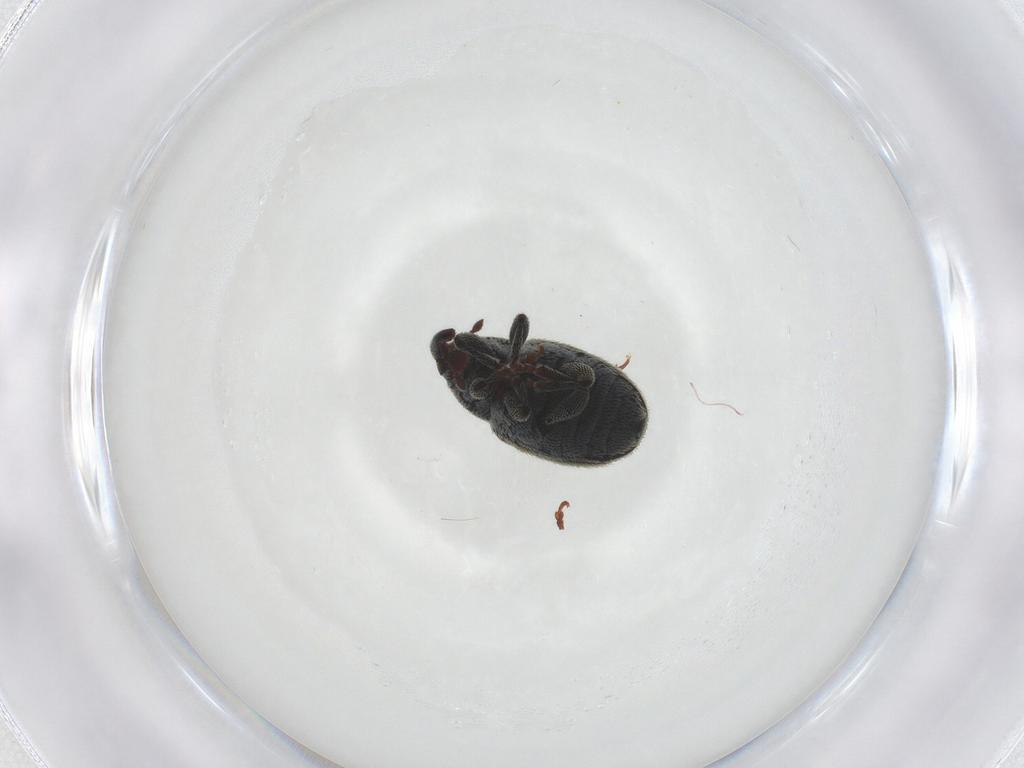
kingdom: Animalia
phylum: Arthropoda
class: Insecta
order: Coleoptera
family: Curculionidae
